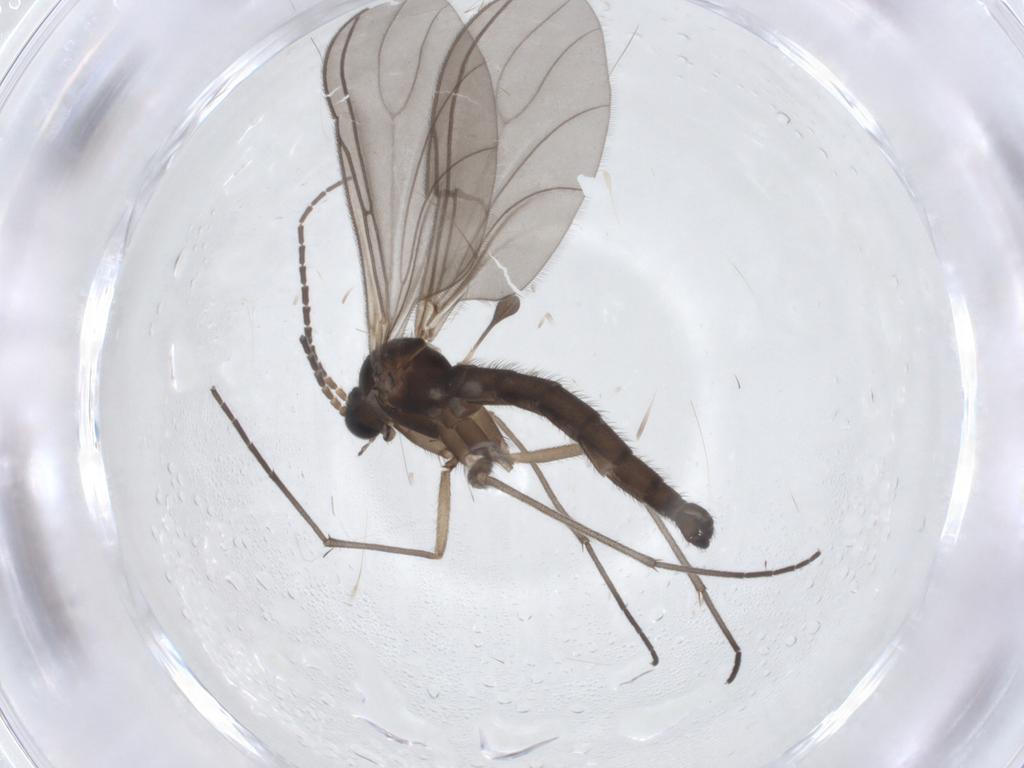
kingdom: Animalia
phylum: Arthropoda
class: Insecta
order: Diptera
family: Sciaridae
